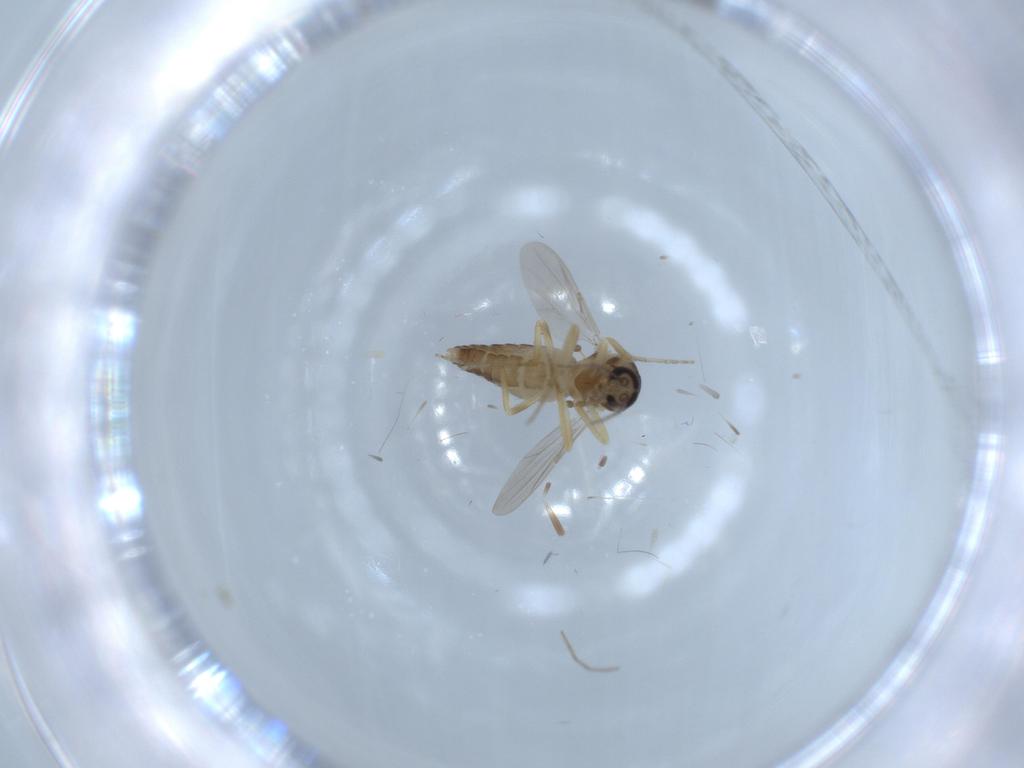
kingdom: Animalia
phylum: Arthropoda
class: Insecta
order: Diptera
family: Ceratopogonidae
